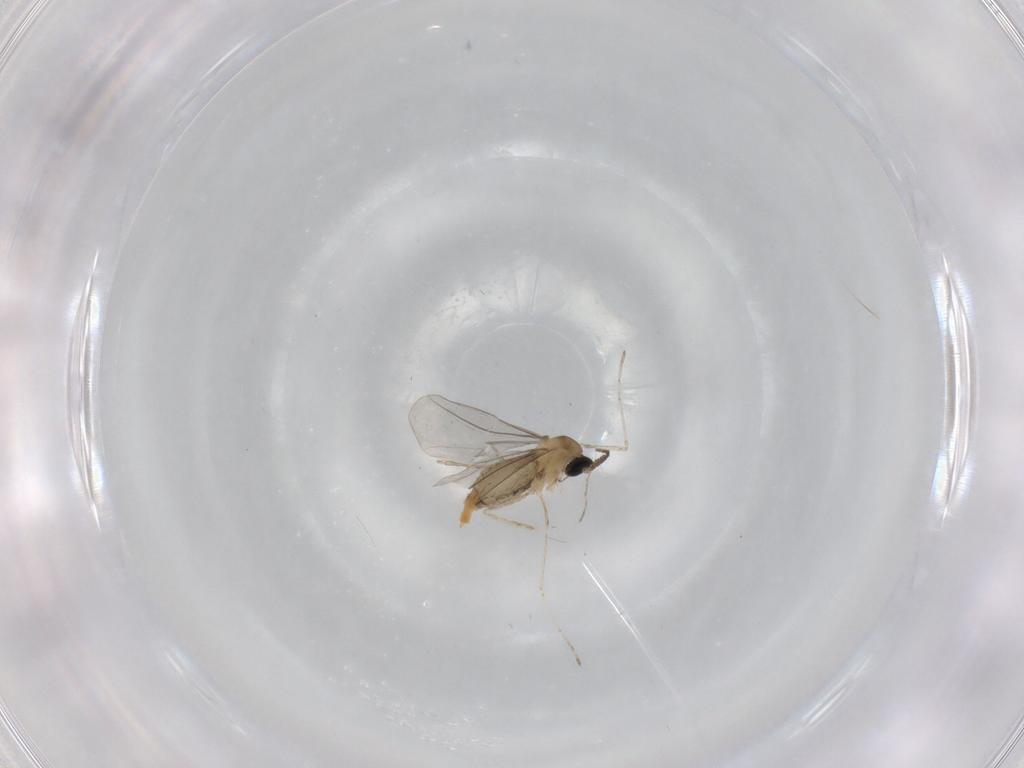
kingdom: Animalia
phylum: Arthropoda
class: Insecta
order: Diptera
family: Cecidomyiidae
